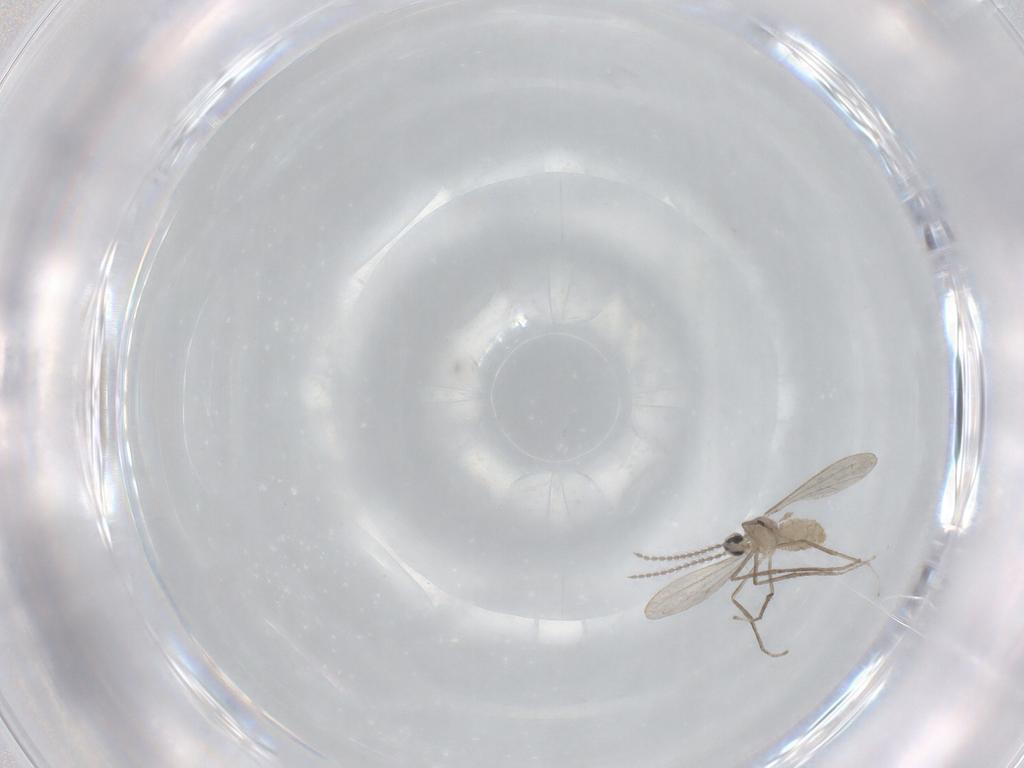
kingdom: Animalia
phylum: Arthropoda
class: Insecta
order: Diptera
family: Cecidomyiidae
